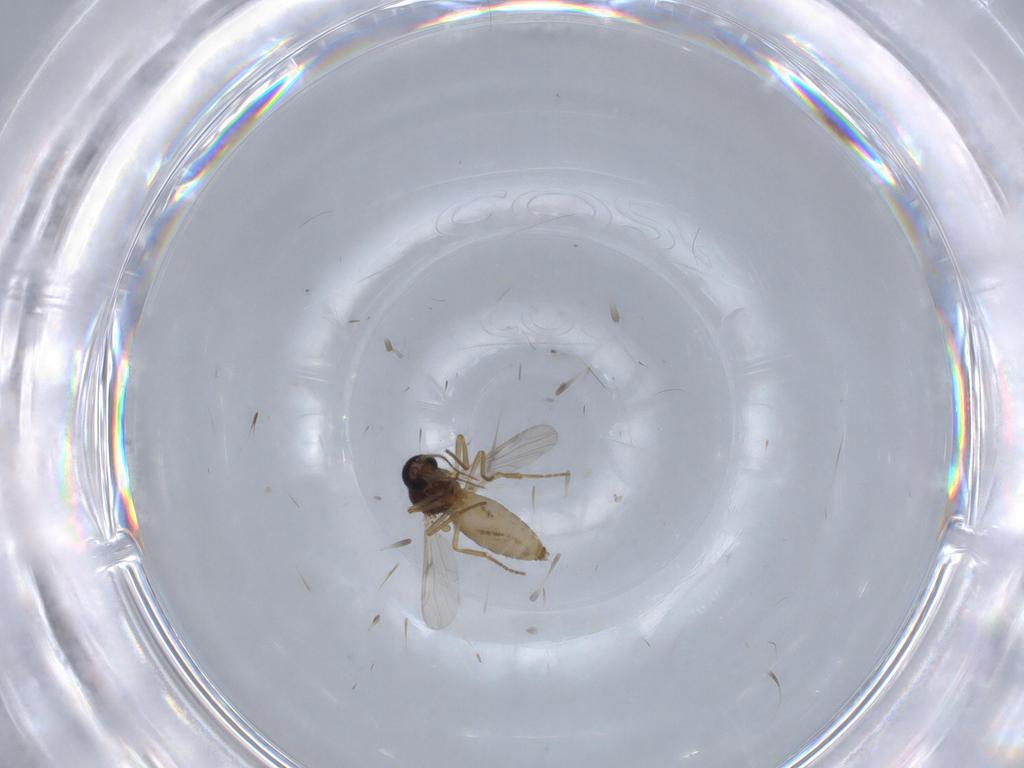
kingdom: Animalia
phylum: Arthropoda
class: Insecta
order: Diptera
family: Ceratopogonidae
